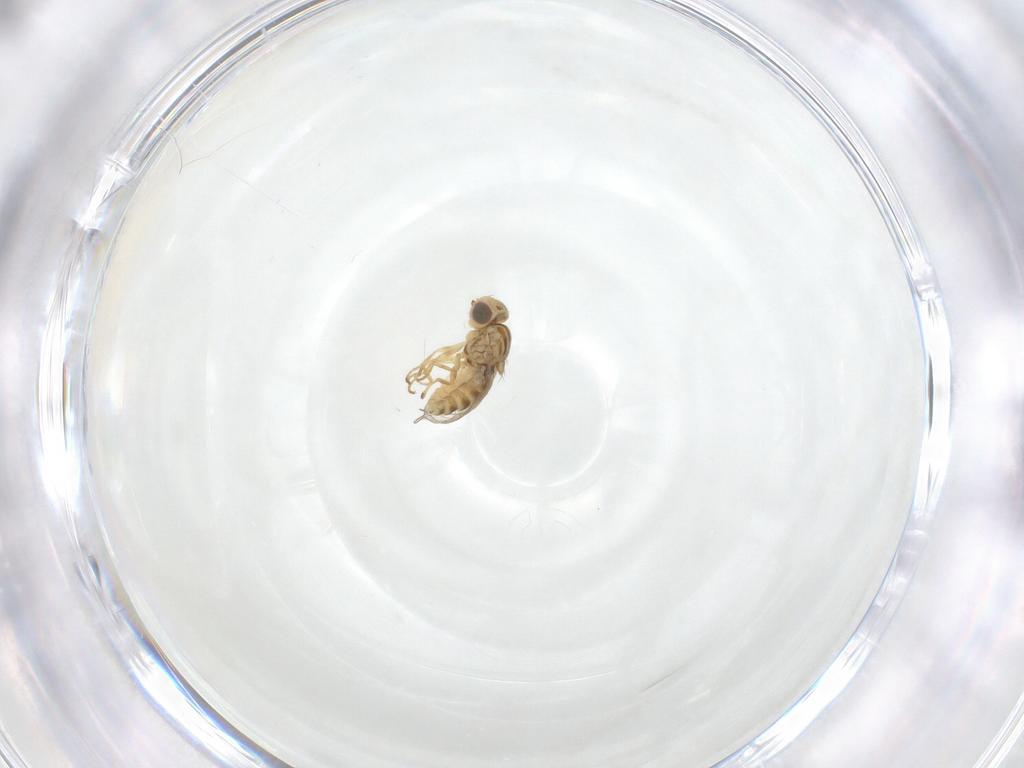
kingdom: Animalia
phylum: Arthropoda
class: Insecta
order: Diptera
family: Chyromyidae
